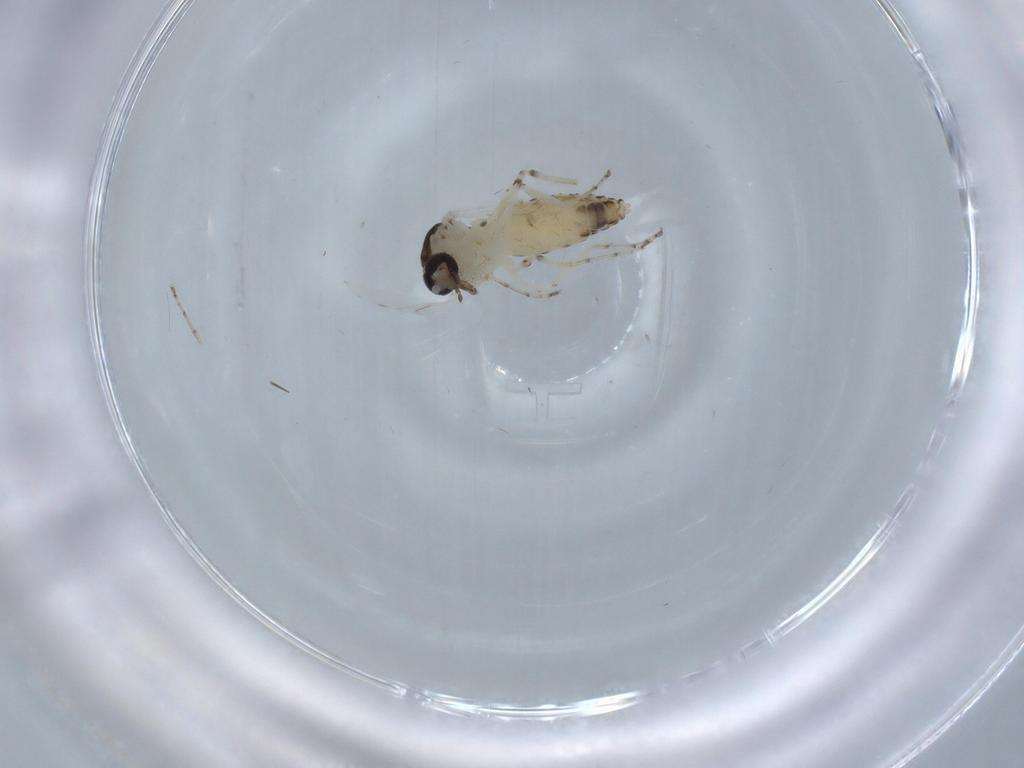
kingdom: Animalia
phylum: Arthropoda
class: Insecta
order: Diptera
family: Ceratopogonidae
